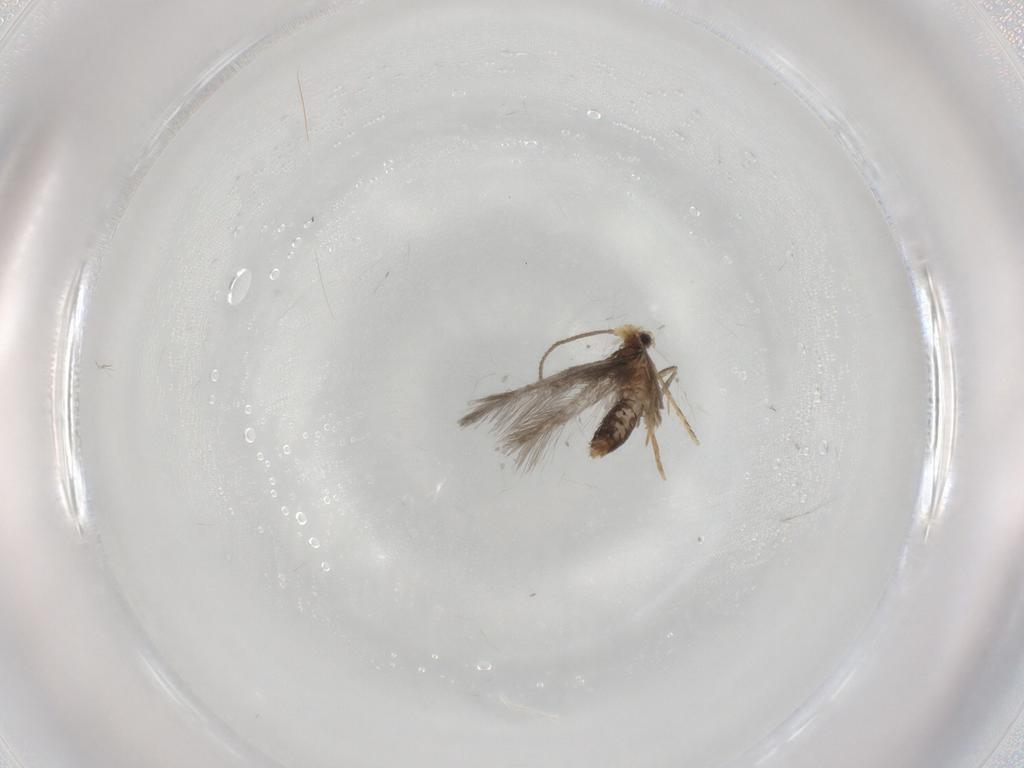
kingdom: Animalia
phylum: Arthropoda
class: Insecta
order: Lepidoptera
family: Nepticulidae
